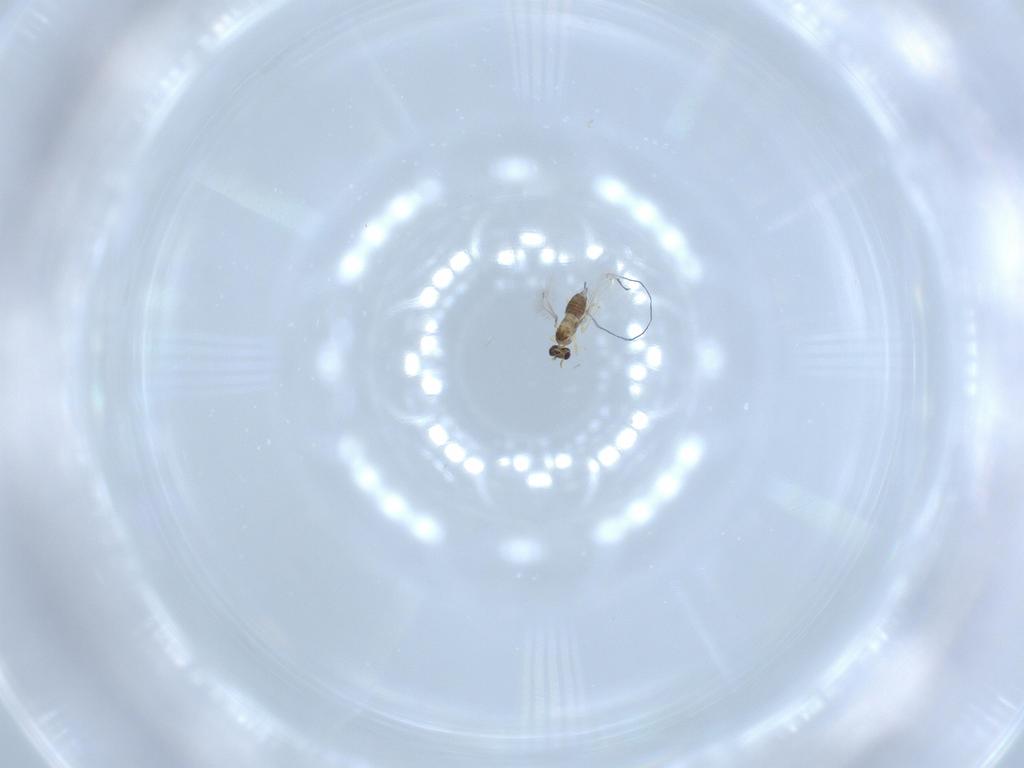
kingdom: Animalia
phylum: Arthropoda
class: Insecta
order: Hymenoptera
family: Mymaridae
